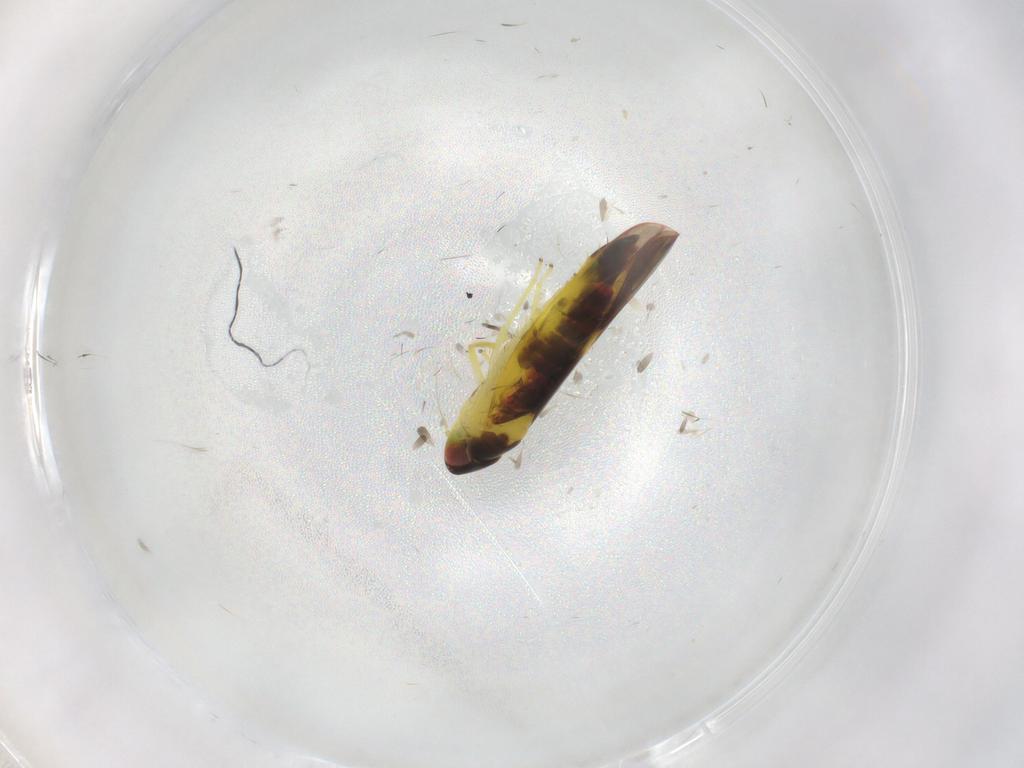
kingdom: Animalia
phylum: Arthropoda
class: Insecta
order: Hemiptera
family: Cicadellidae
